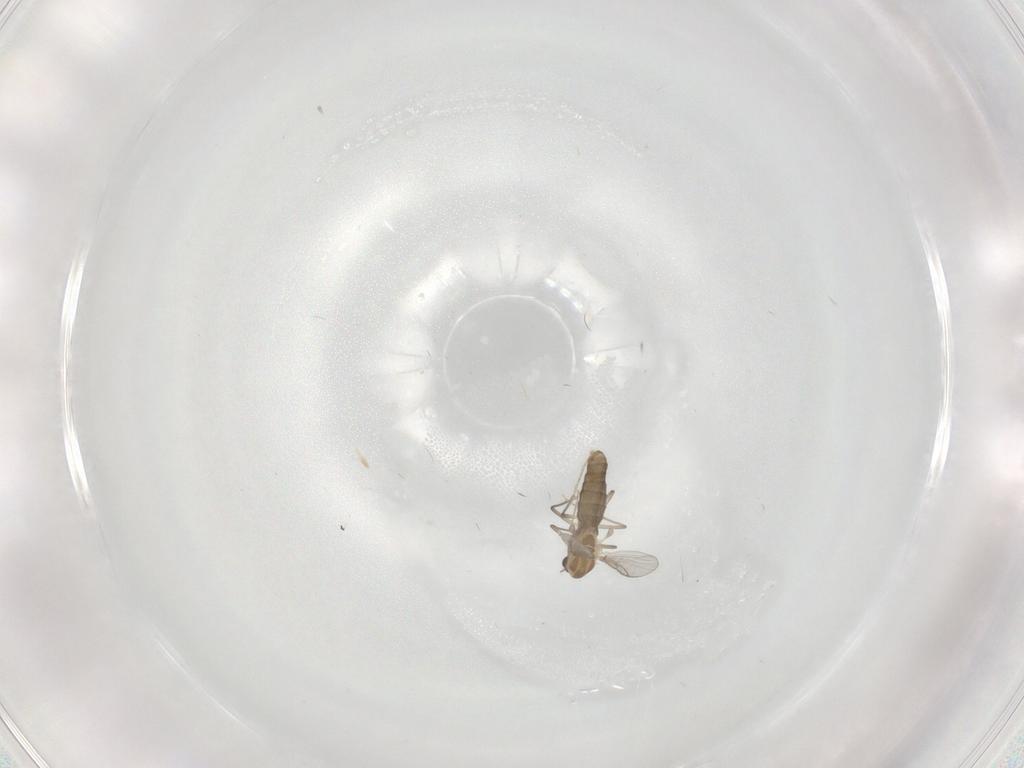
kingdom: Animalia
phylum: Arthropoda
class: Insecta
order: Diptera
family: Chironomidae
